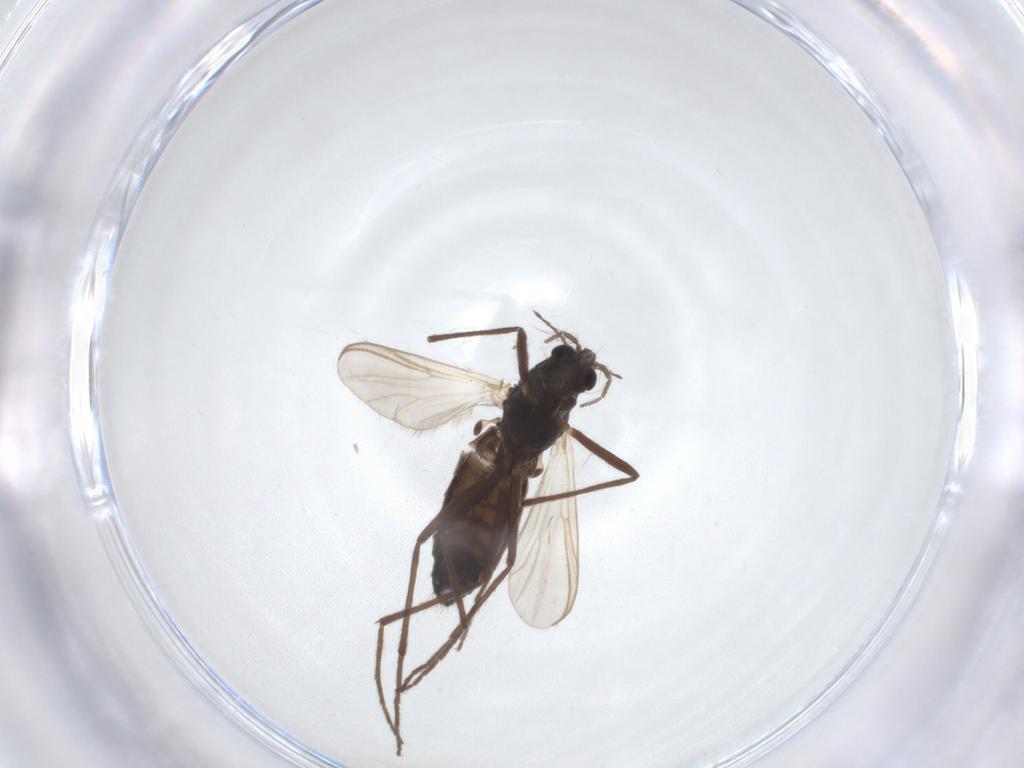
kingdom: Animalia
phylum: Arthropoda
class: Insecta
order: Diptera
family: Chironomidae
